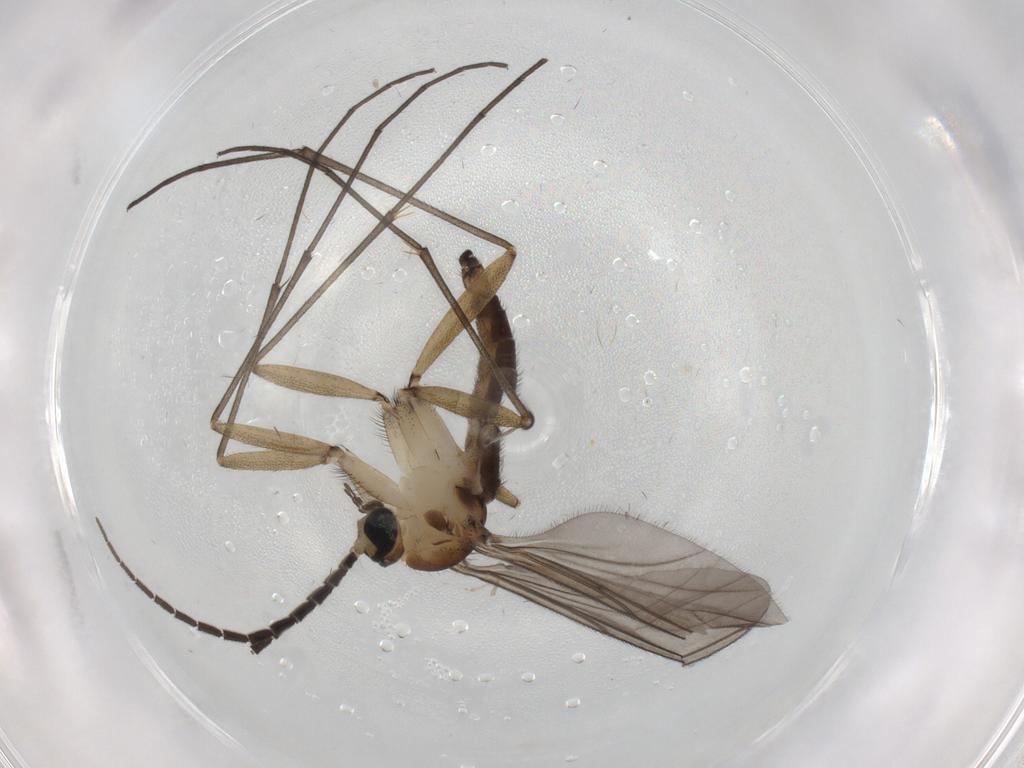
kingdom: Animalia
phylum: Arthropoda
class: Insecta
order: Diptera
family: Sciaridae
